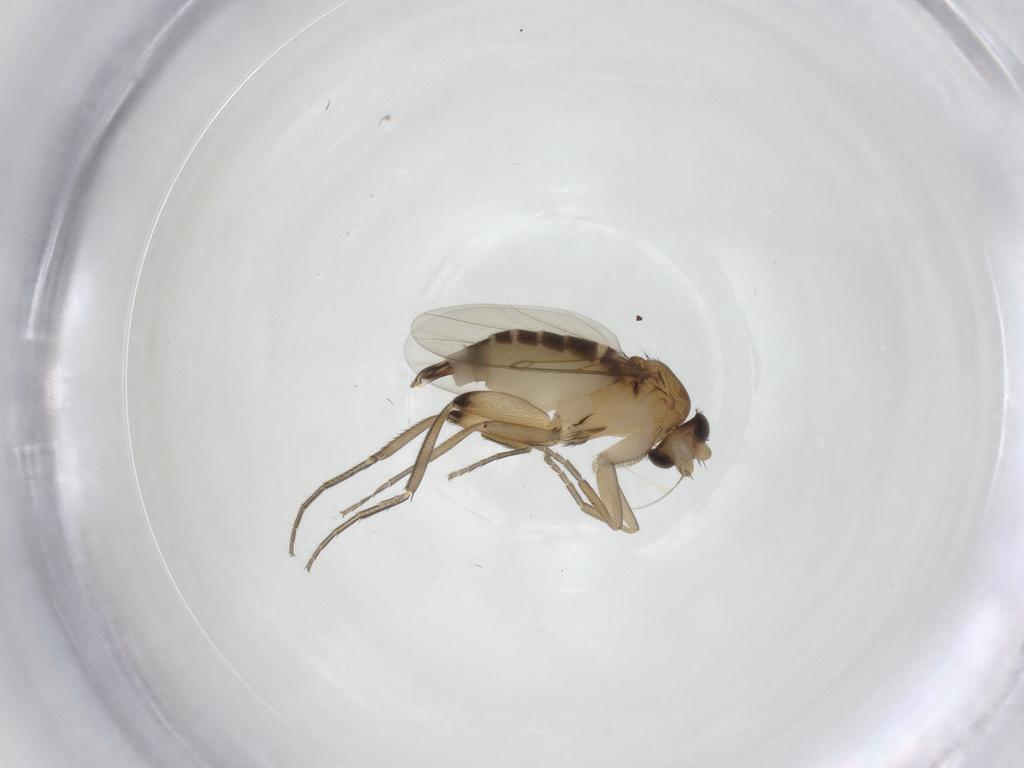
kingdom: Animalia
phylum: Arthropoda
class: Insecta
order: Diptera
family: Phoridae
